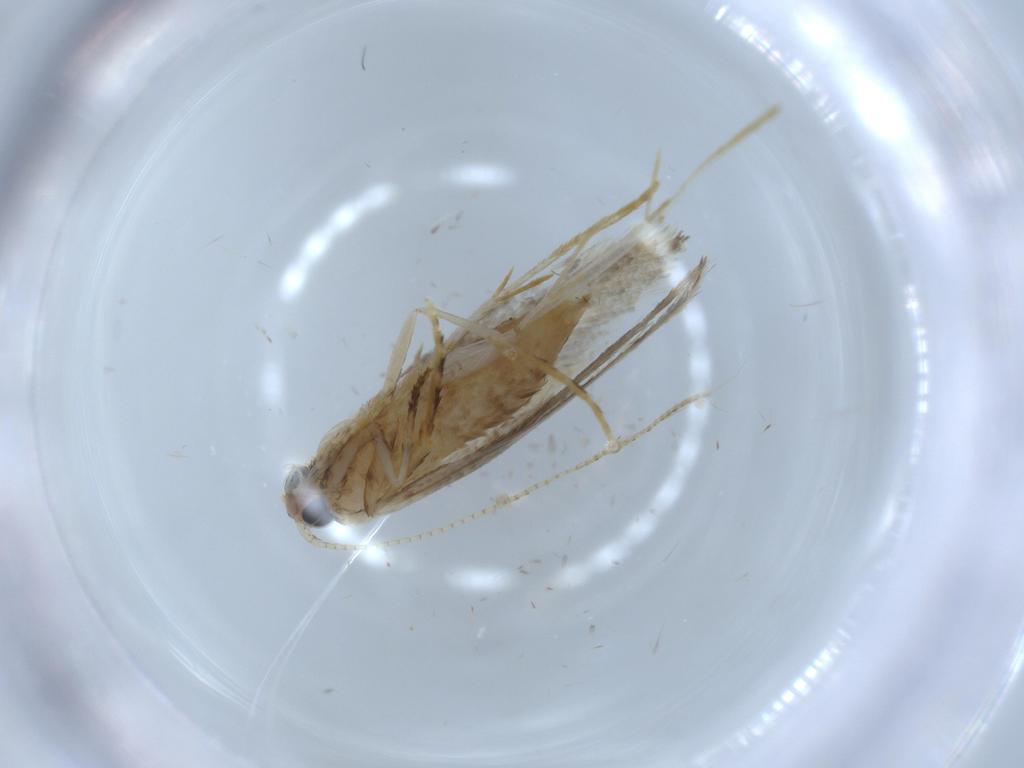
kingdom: Animalia
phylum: Arthropoda
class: Insecta
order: Lepidoptera
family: Tineidae
